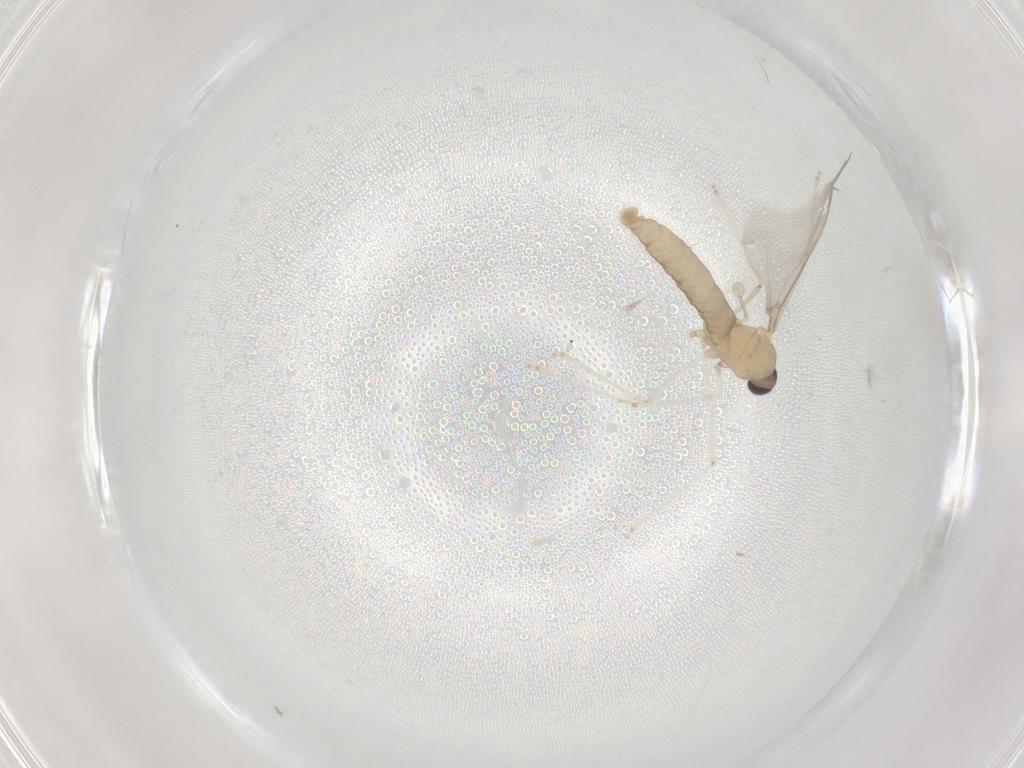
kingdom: Animalia
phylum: Arthropoda
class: Insecta
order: Diptera
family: Cecidomyiidae
